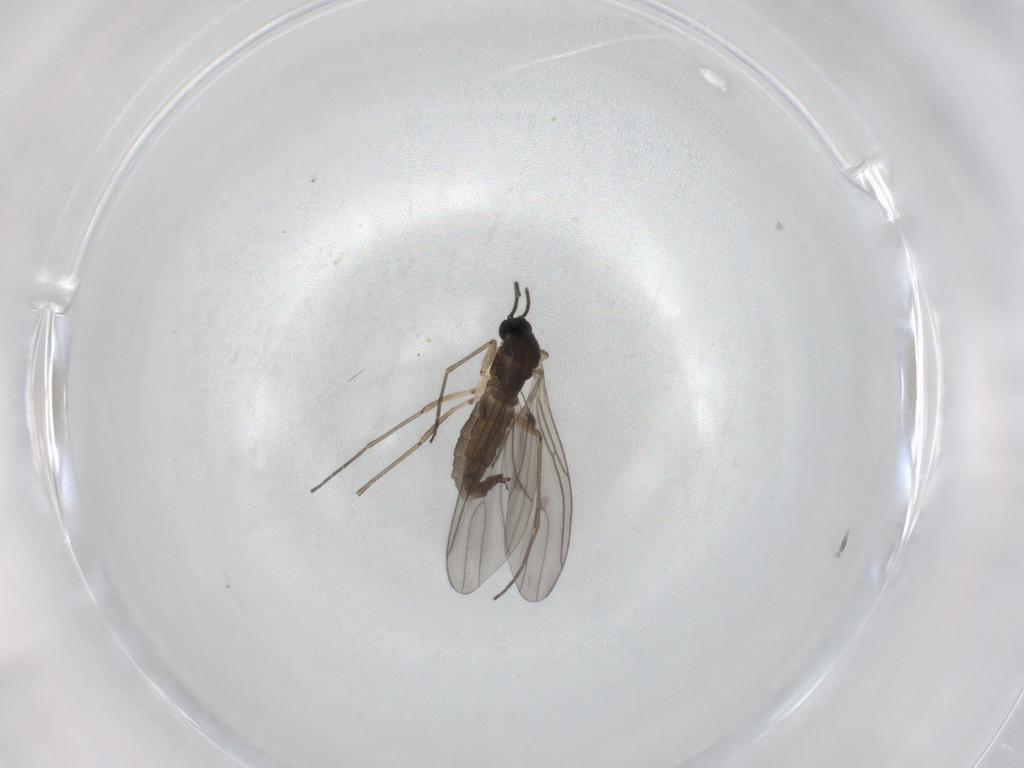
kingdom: Animalia
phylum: Arthropoda
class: Insecta
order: Diptera
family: Sciaridae
